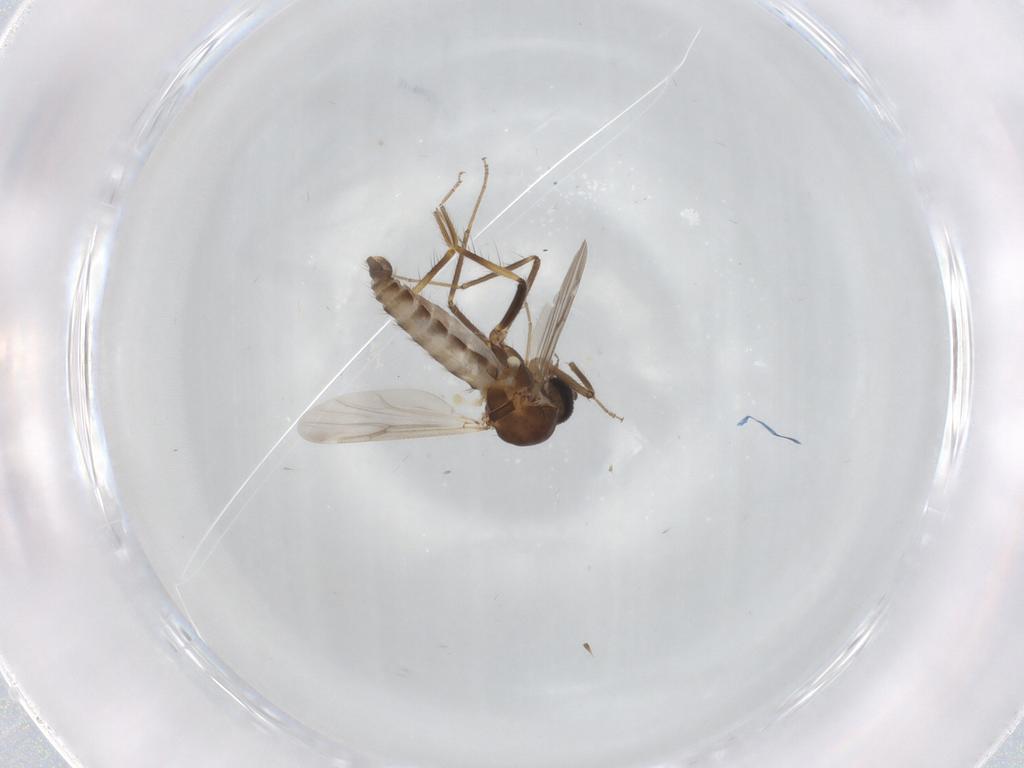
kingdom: Animalia
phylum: Arthropoda
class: Insecta
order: Diptera
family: Ceratopogonidae
